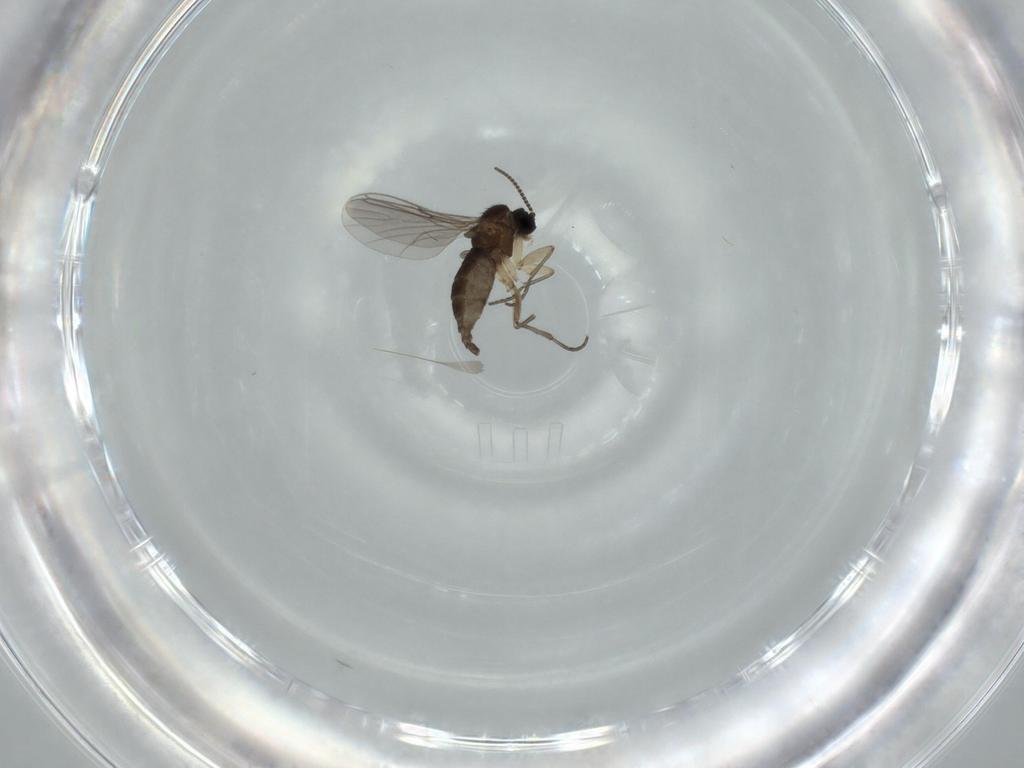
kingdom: Animalia
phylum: Arthropoda
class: Insecta
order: Diptera
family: Sciaridae
